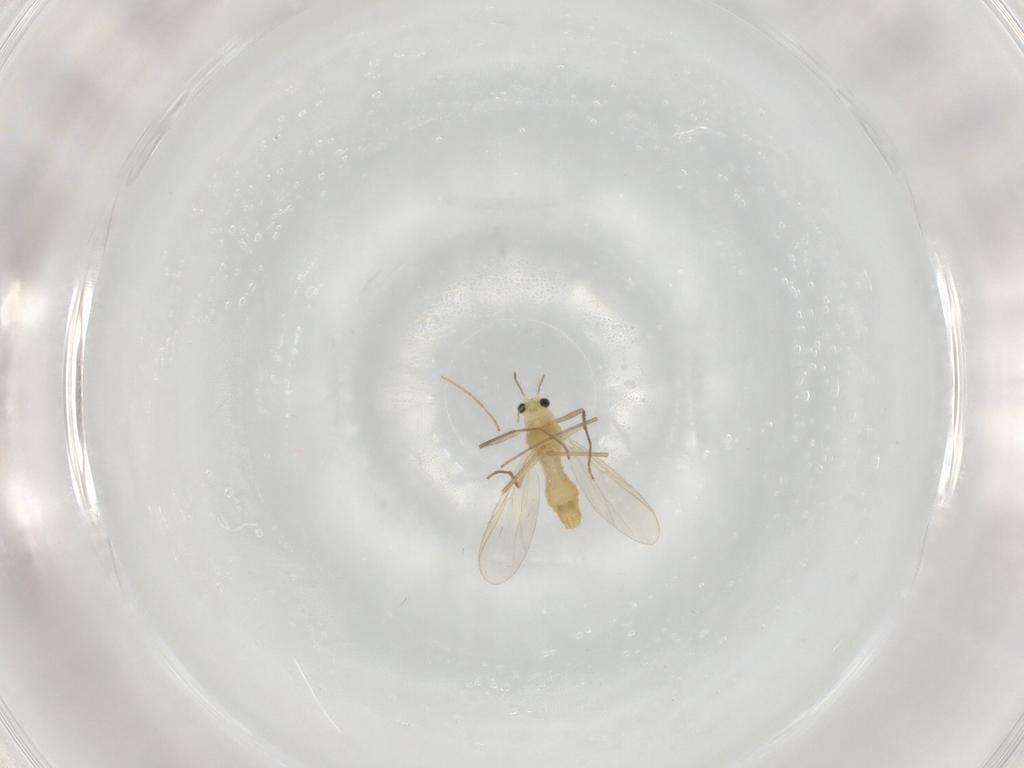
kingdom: Animalia
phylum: Arthropoda
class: Insecta
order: Diptera
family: Chironomidae
